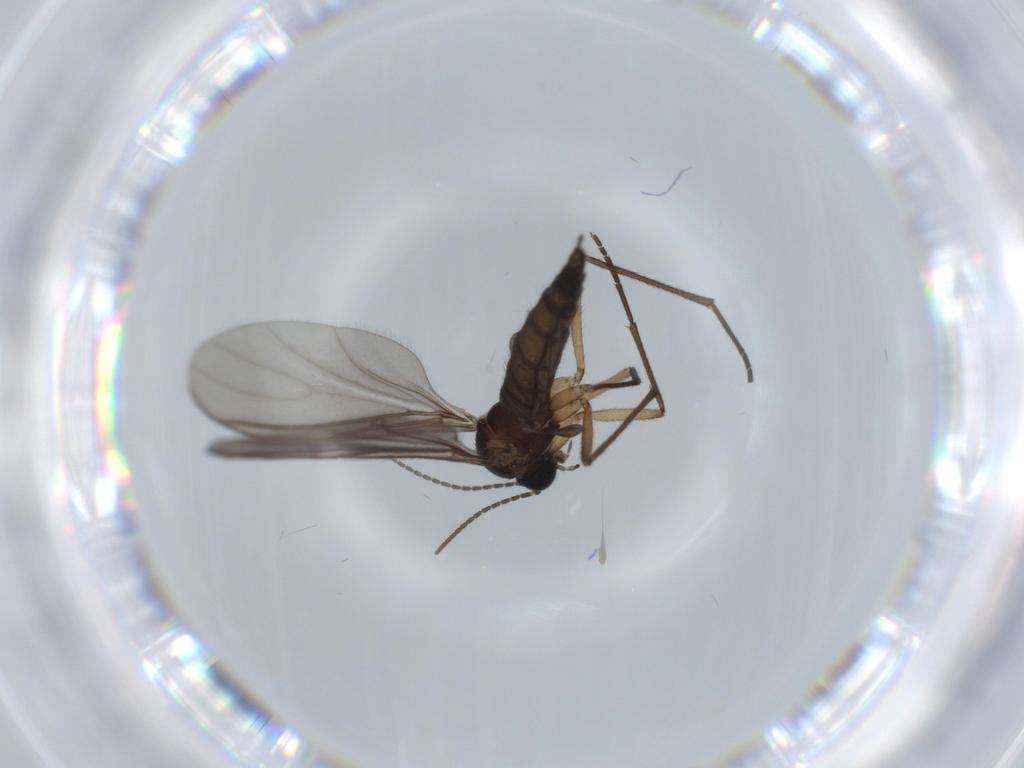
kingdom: Animalia
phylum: Arthropoda
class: Insecta
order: Diptera
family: Sciaridae
